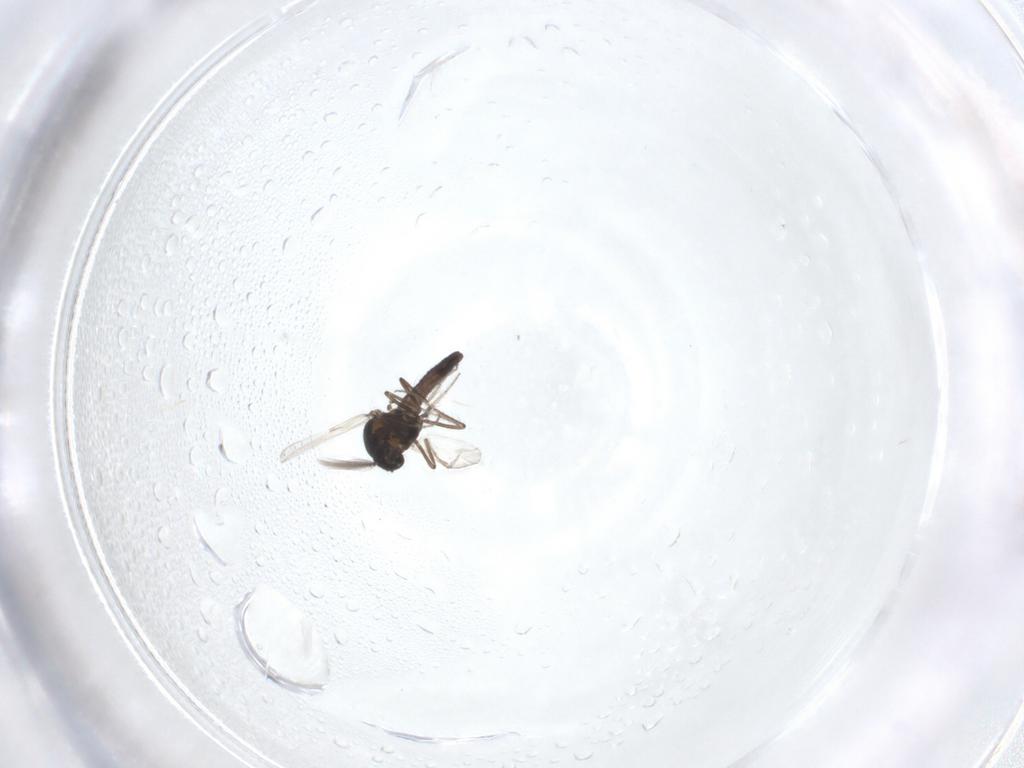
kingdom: Animalia
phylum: Arthropoda
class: Insecta
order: Diptera
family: Ceratopogonidae
